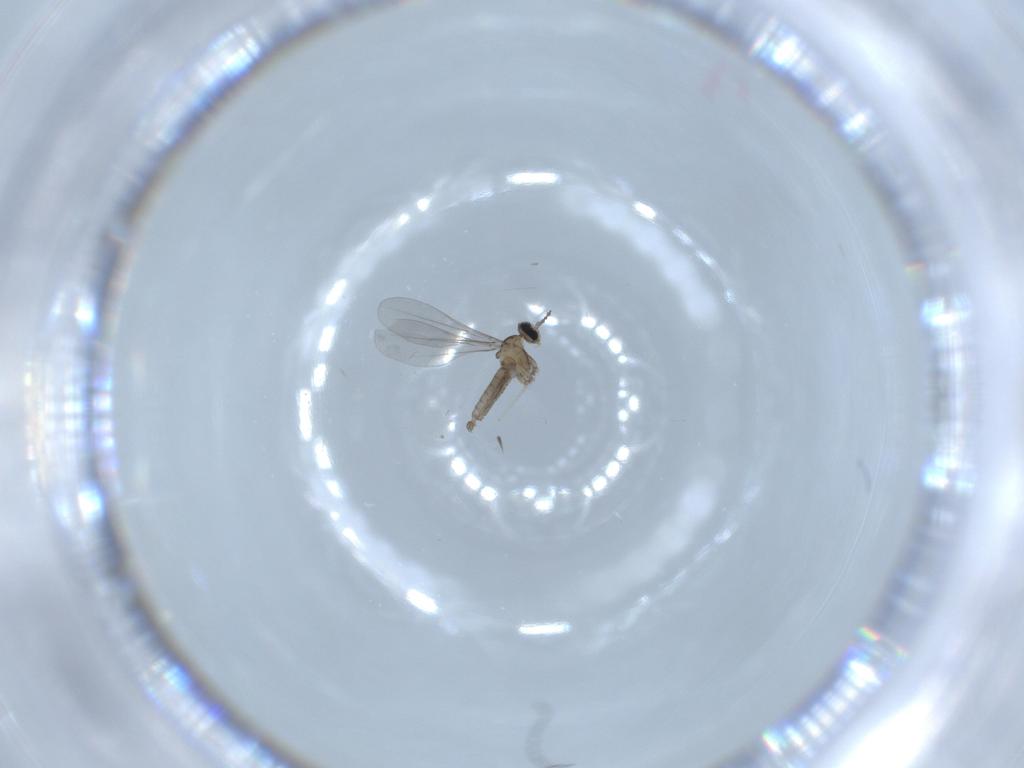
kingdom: Animalia
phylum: Arthropoda
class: Insecta
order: Diptera
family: Cecidomyiidae
